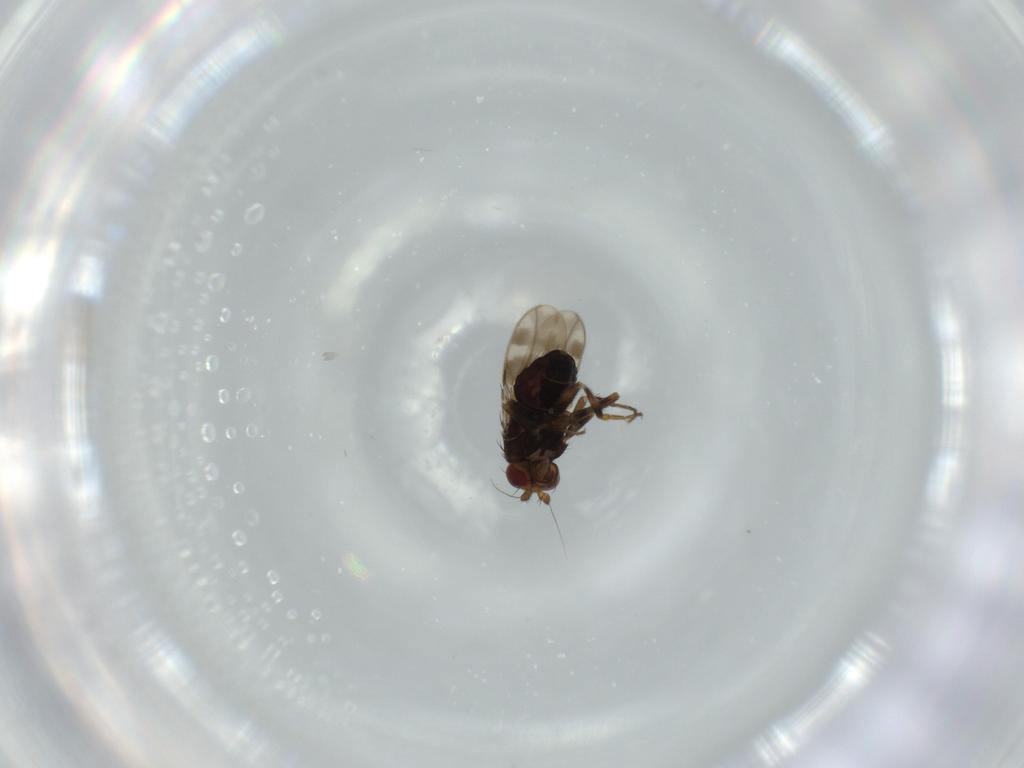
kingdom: Animalia
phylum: Arthropoda
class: Insecta
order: Diptera
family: Sphaeroceridae
